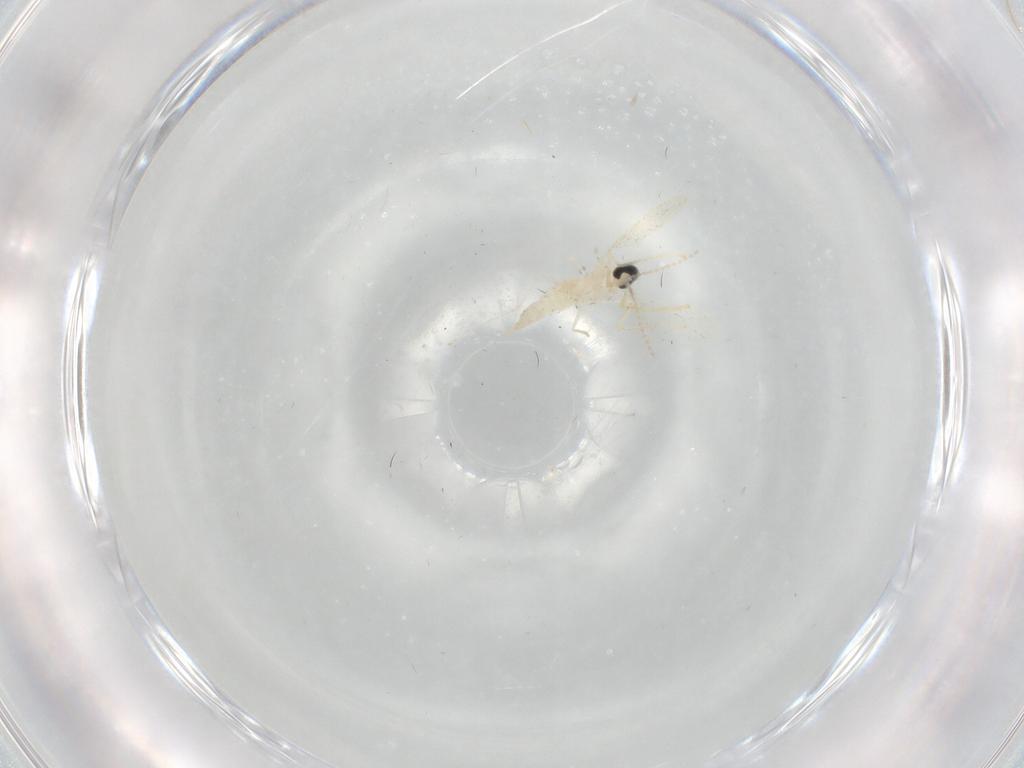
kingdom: Animalia
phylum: Arthropoda
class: Insecta
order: Diptera
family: Cecidomyiidae
